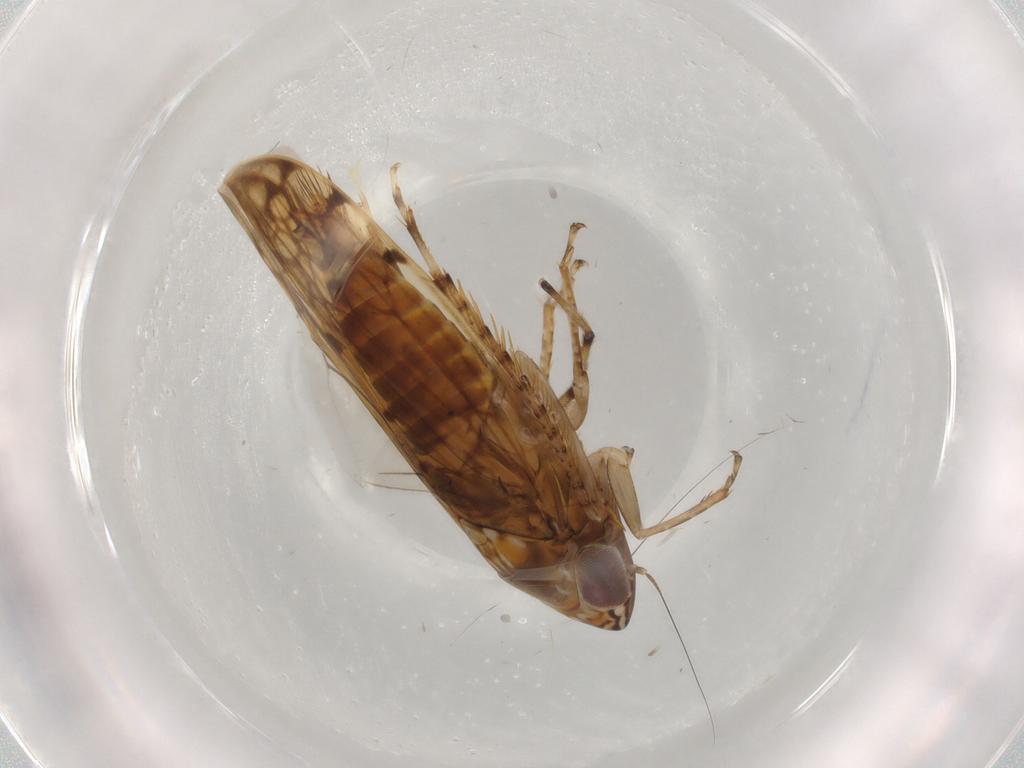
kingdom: Animalia
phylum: Arthropoda
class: Insecta
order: Hemiptera
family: Cicadellidae
